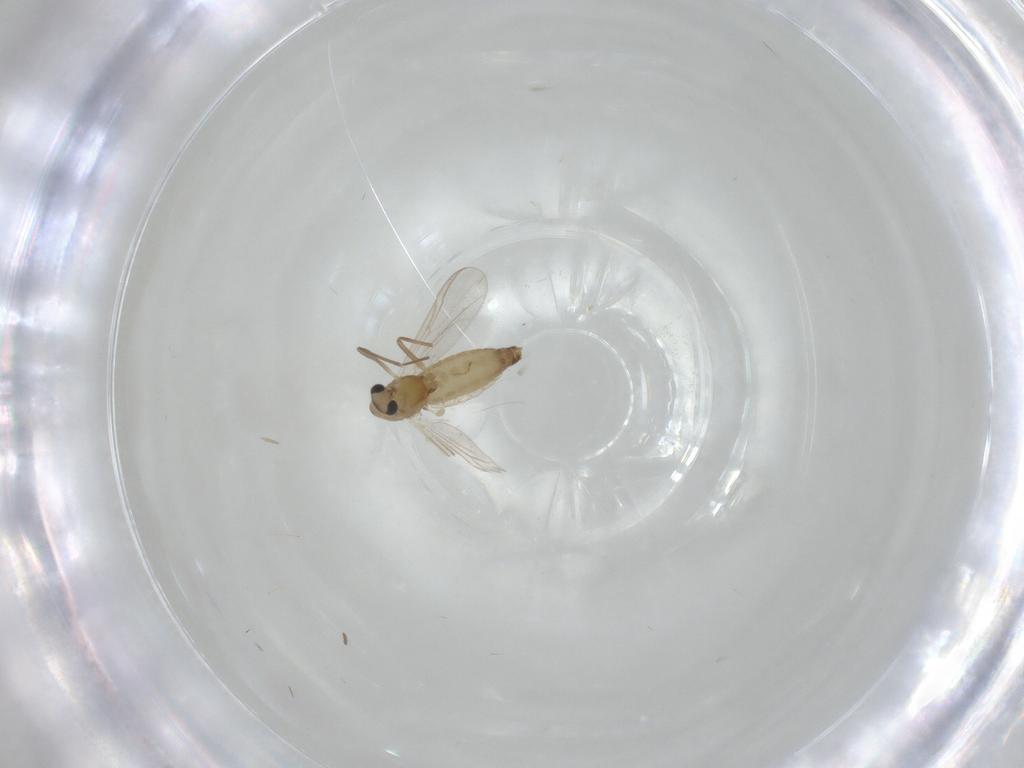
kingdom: Animalia
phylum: Arthropoda
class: Insecta
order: Diptera
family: Chironomidae
